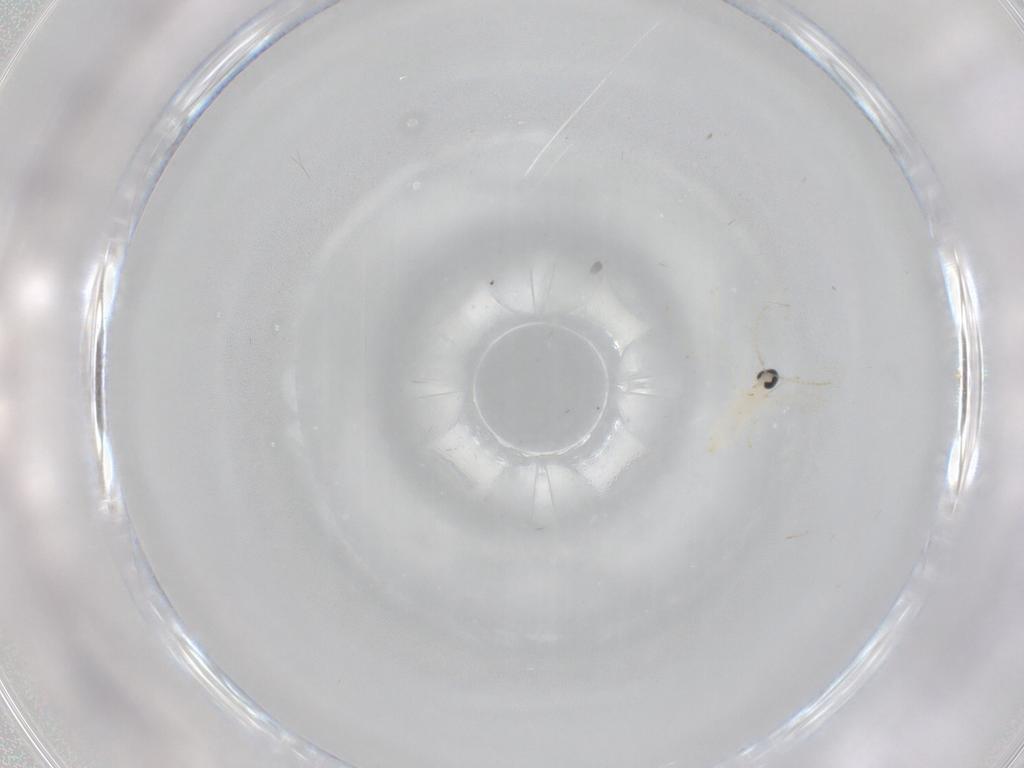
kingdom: Animalia
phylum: Arthropoda
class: Insecta
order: Diptera
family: Cecidomyiidae
